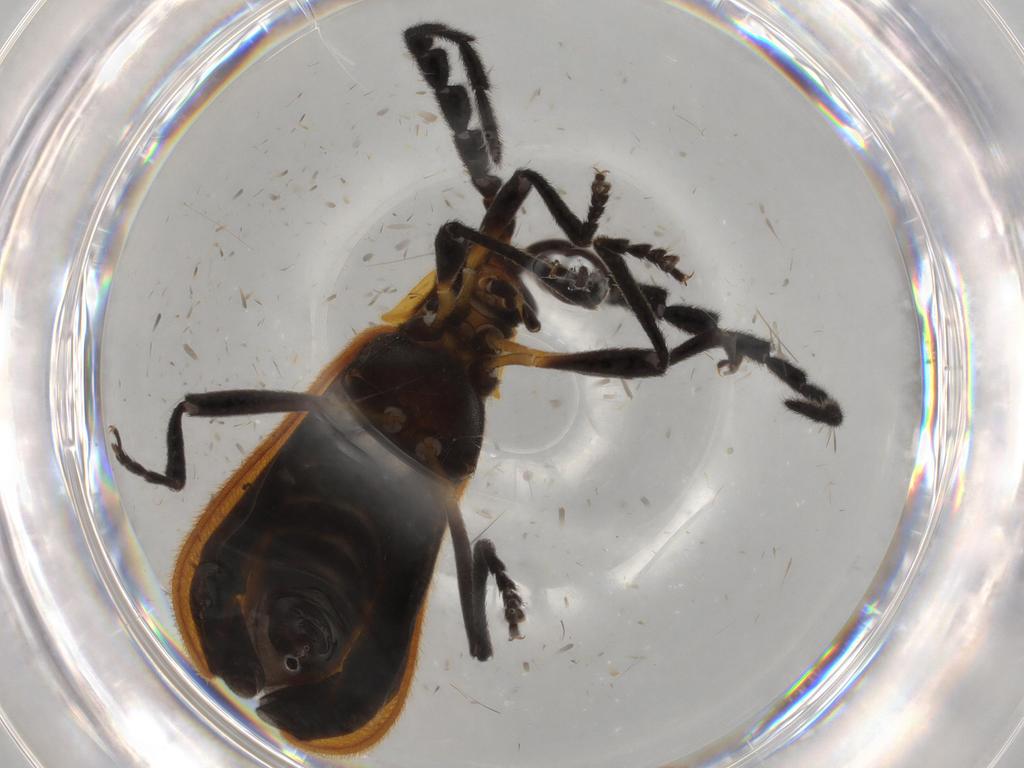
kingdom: Animalia
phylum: Arthropoda
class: Insecta
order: Coleoptera
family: Lycidae
